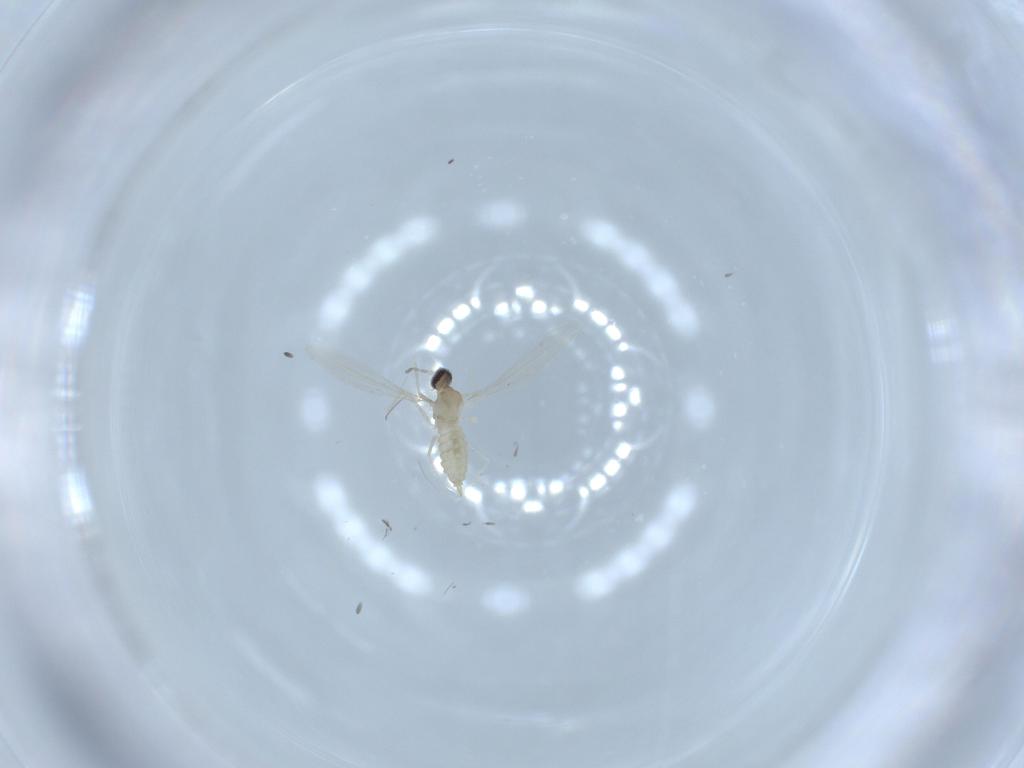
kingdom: Animalia
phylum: Arthropoda
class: Insecta
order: Diptera
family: Cecidomyiidae
